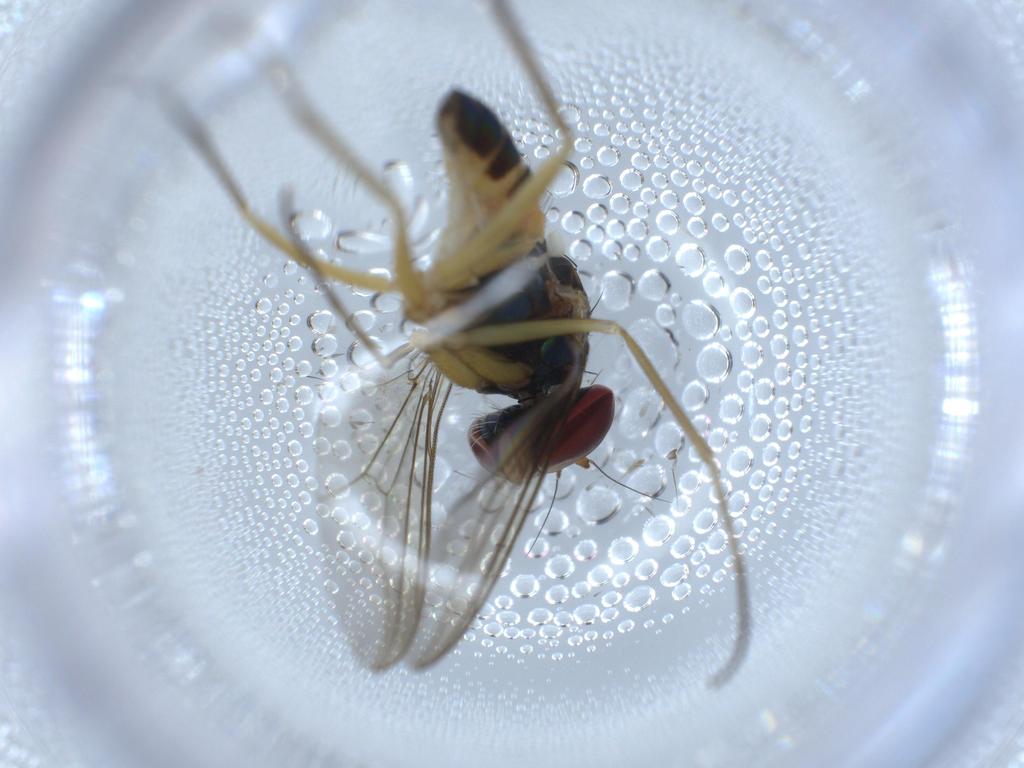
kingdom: Animalia
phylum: Arthropoda
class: Insecta
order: Diptera
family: Dolichopodidae
